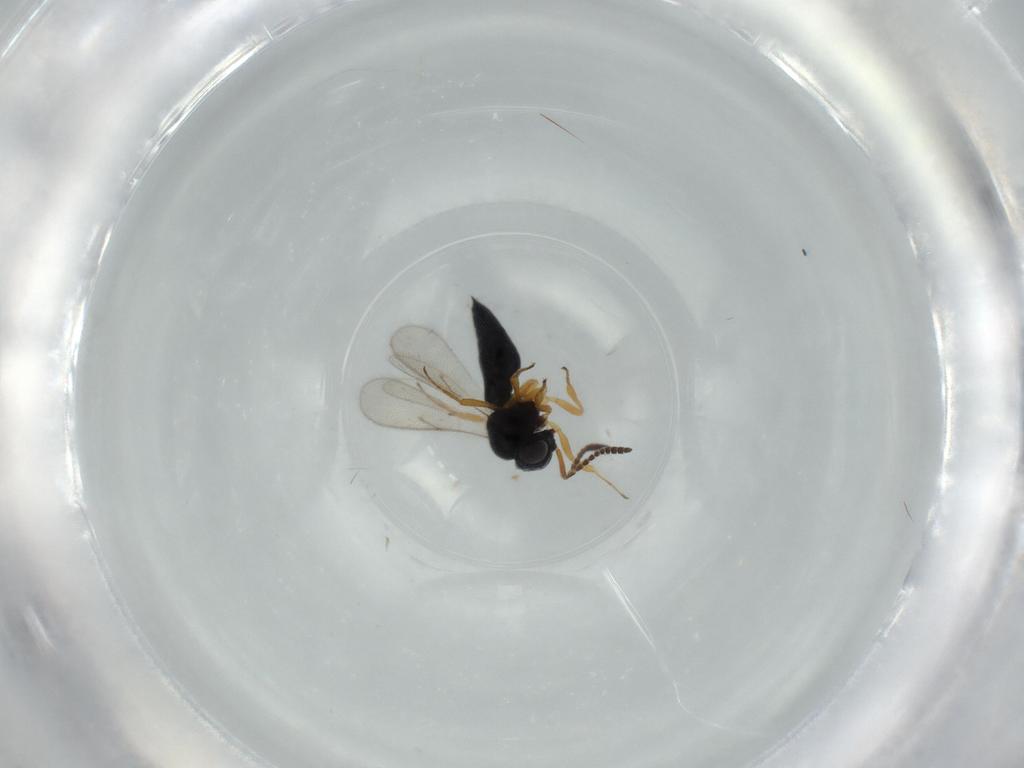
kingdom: Animalia
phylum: Arthropoda
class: Insecta
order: Hymenoptera
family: Scelionidae
